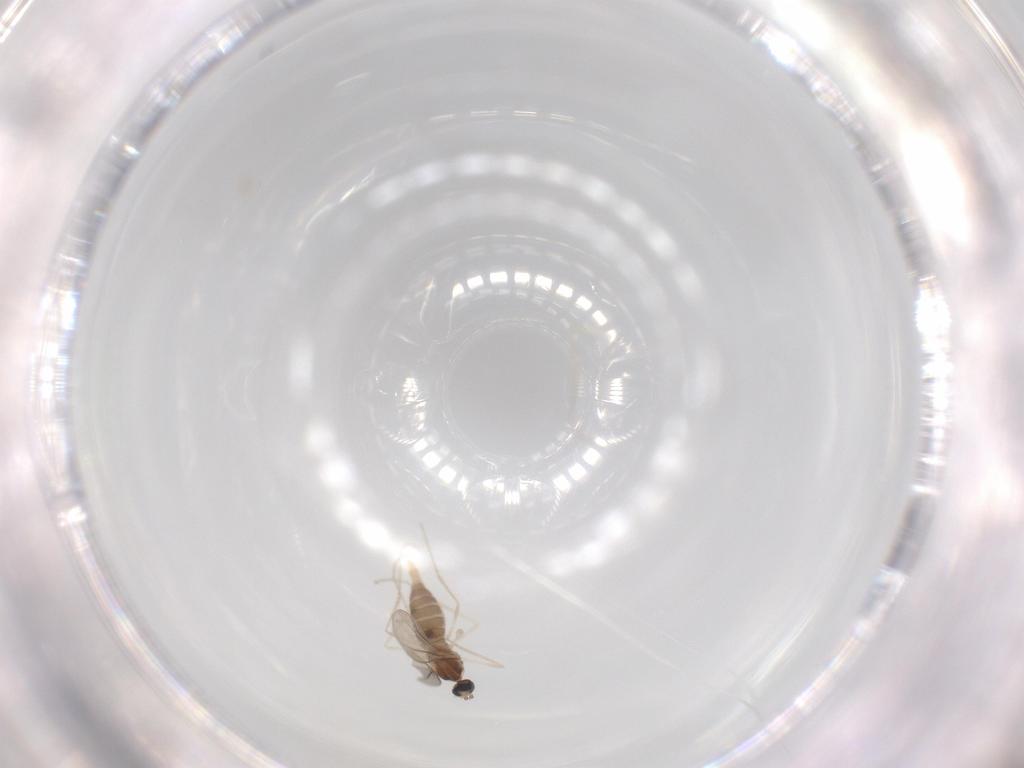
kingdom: Animalia
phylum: Arthropoda
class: Insecta
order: Diptera
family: Cecidomyiidae
